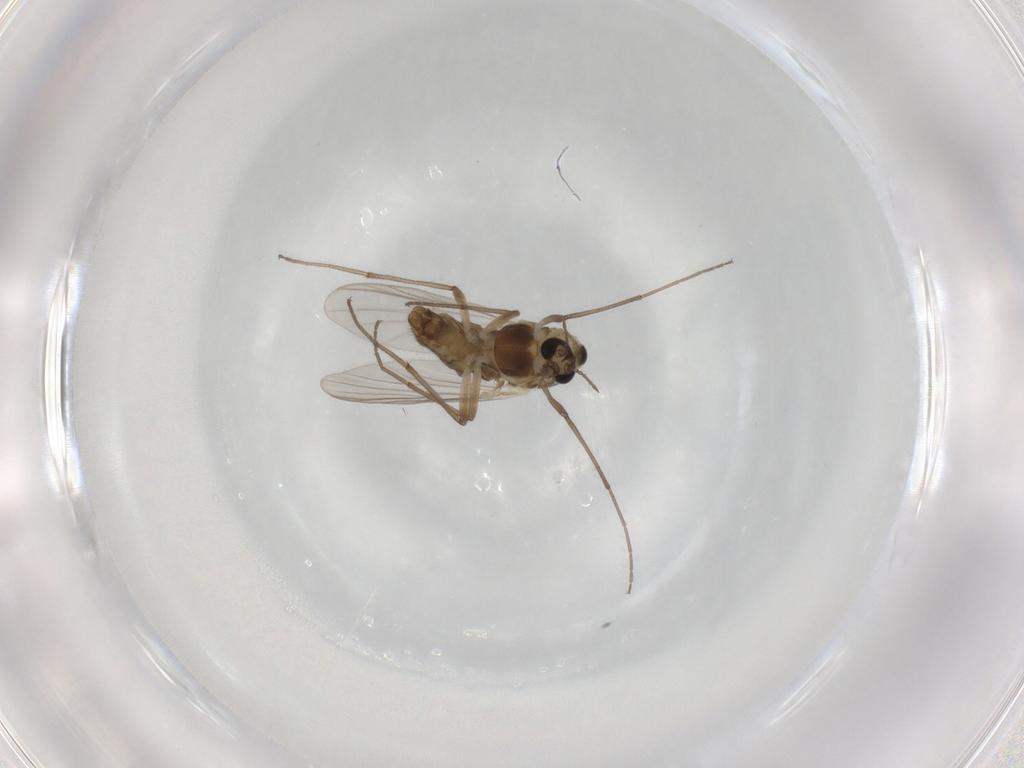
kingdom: Animalia
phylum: Arthropoda
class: Insecta
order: Diptera
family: Chironomidae
